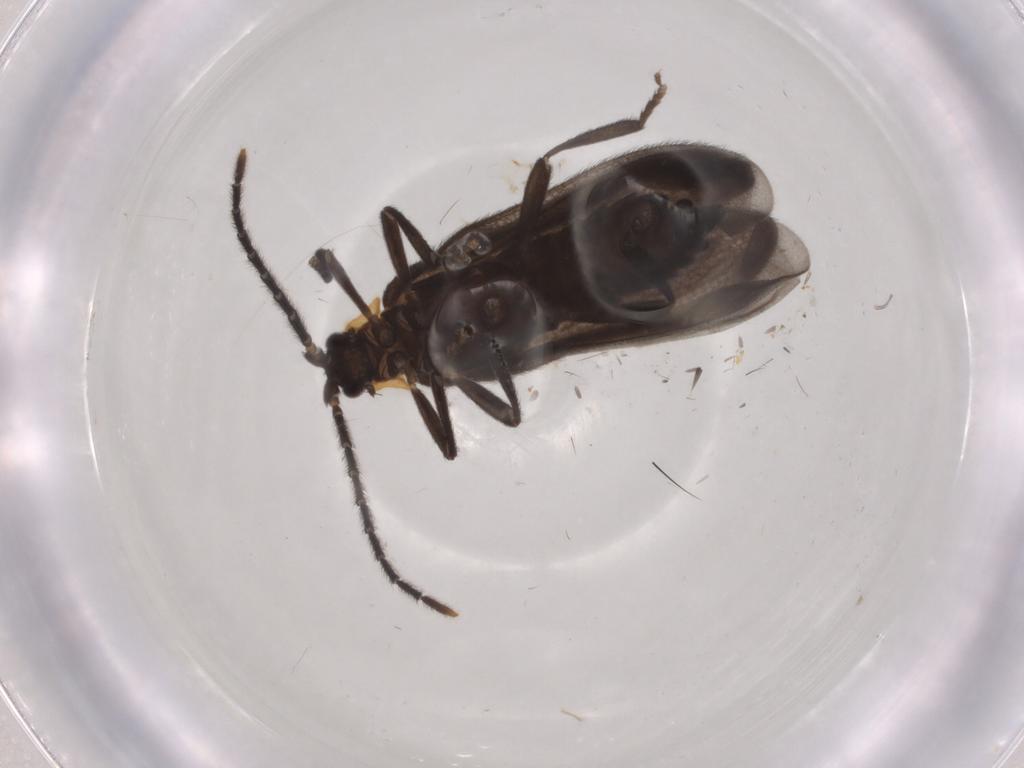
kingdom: Animalia
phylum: Arthropoda
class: Insecta
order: Coleoptera
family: Lycidae
